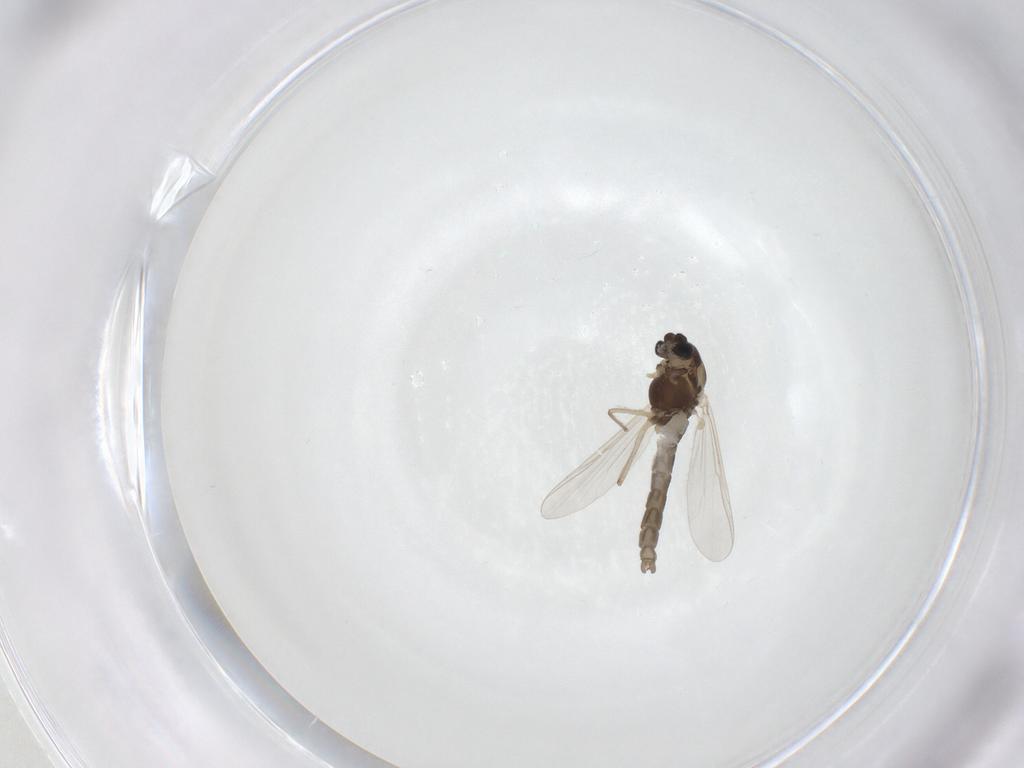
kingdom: Animalia
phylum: Arthropoda
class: Insecta
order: Diptera
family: Chironomidae
